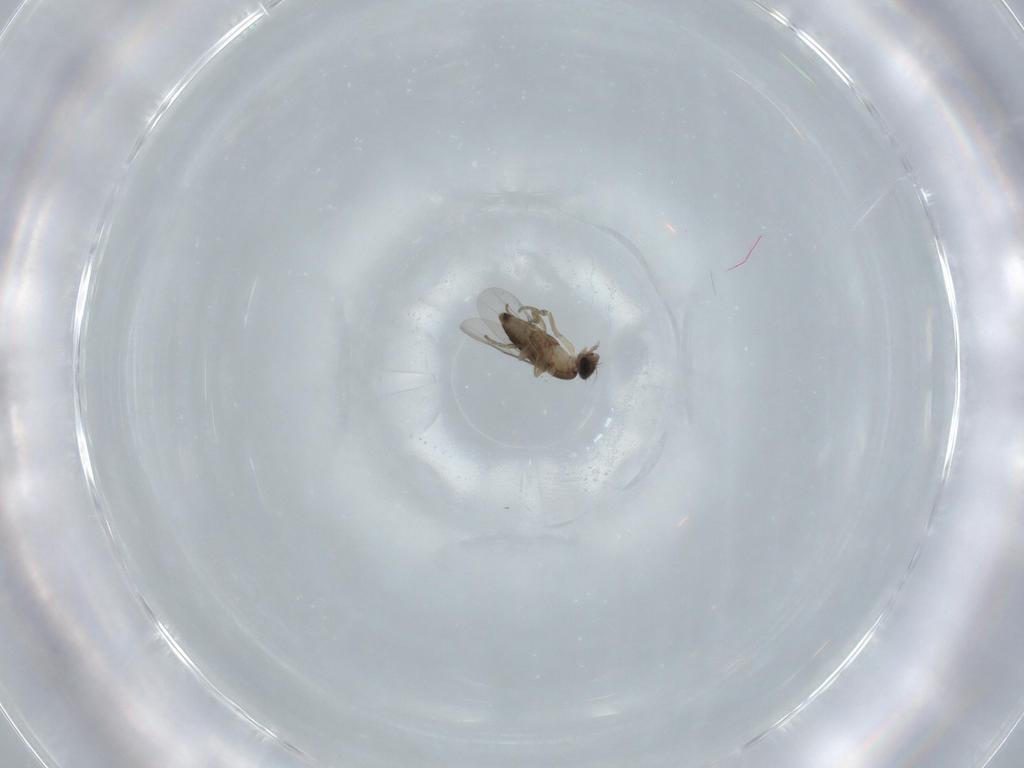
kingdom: Animalia
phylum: Arthropoda
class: Insecta
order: Diptera
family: Phoridae
